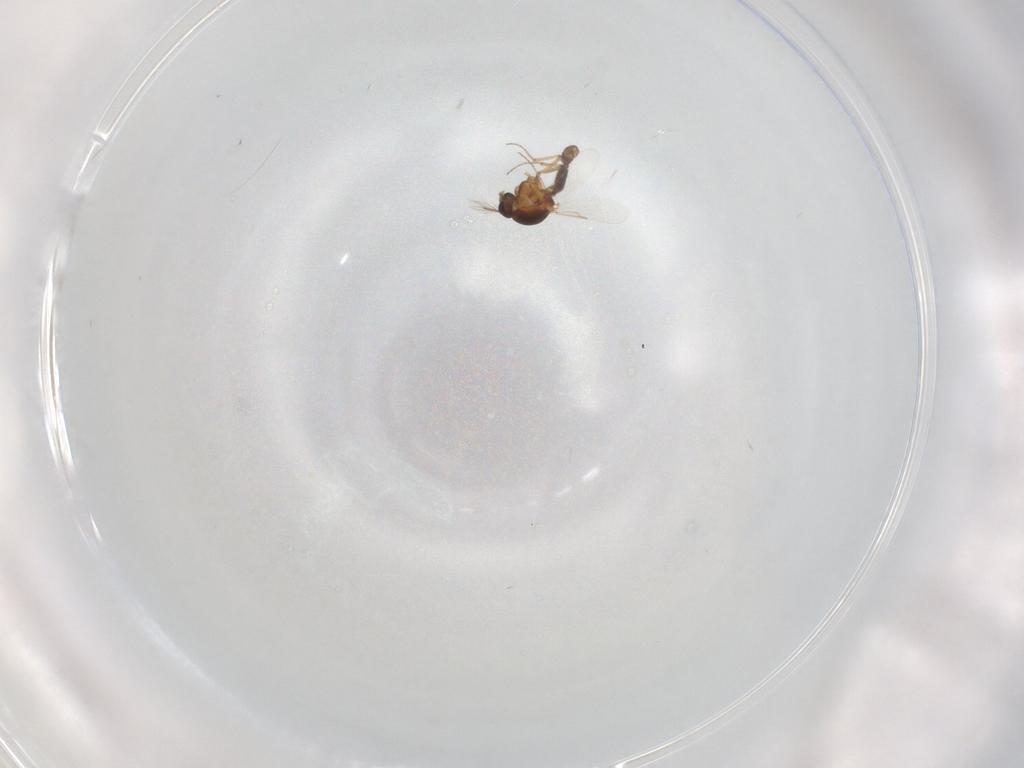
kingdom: Animalia
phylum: Arthropoda
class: Insecta
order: Diptera
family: Ceratopogonidae
